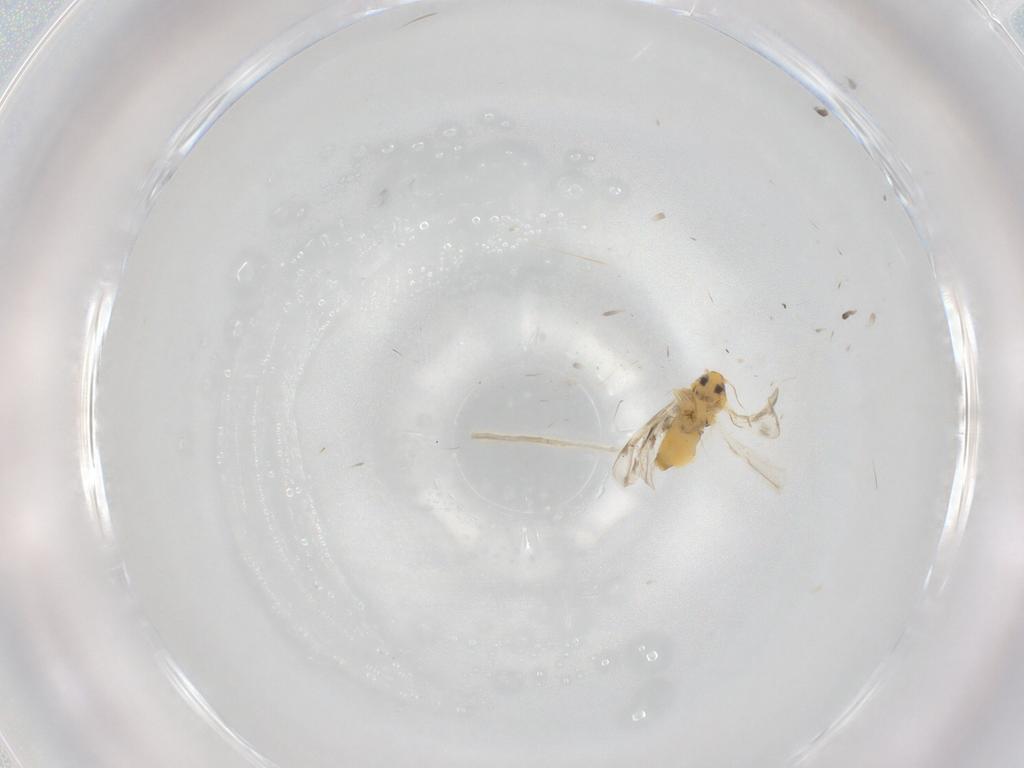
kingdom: Animalia
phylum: Arthropoda
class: Insecta
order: Hemiptera
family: Aleyrodidae
